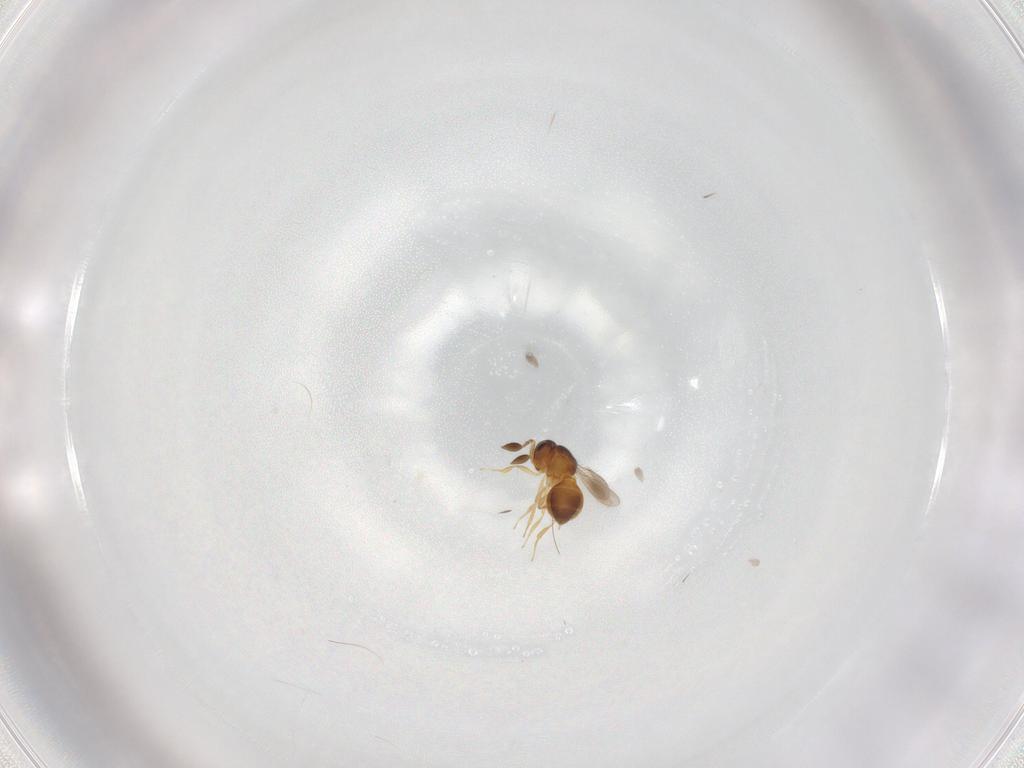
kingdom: Animalia
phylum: Arthropoda
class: Insecta
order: Hymenoptera
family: Scelionidae
